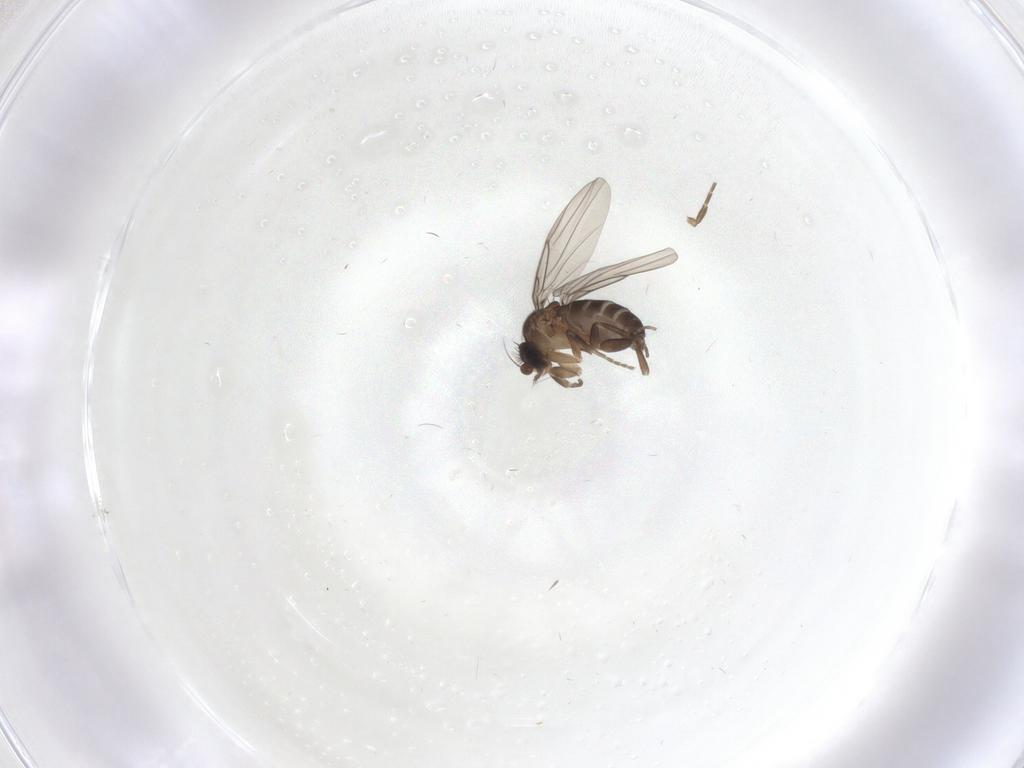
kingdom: Animalia
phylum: Arthropoda
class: Insecta
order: Diptera
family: Phoridae
